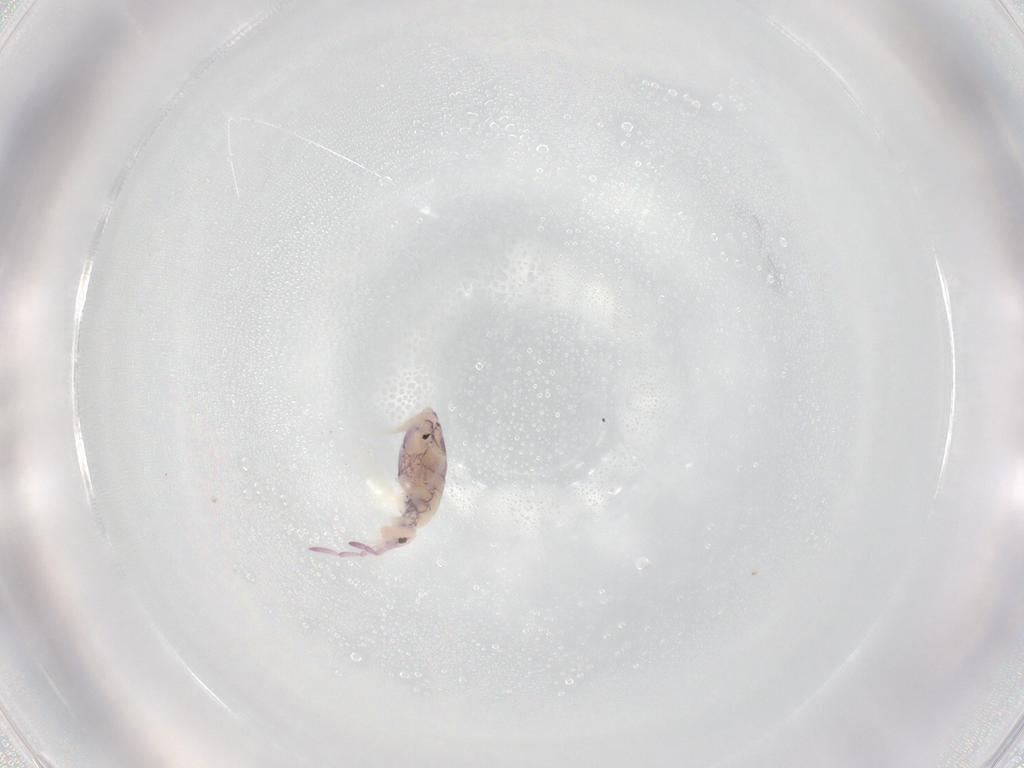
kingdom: Animalia
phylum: Arthropoda
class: Collembola
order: Entomobryomorpha
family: Entomobryidae
